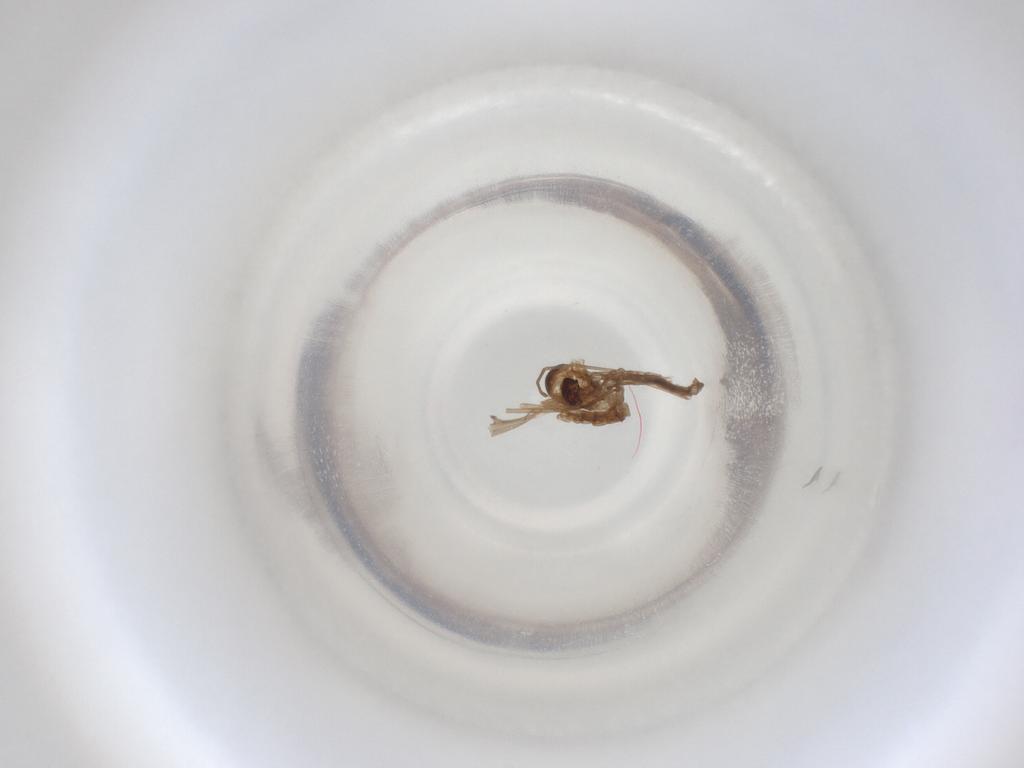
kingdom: Animalia
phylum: Arthropoda
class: Insecta
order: Diptera
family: Cecidomyiidae
